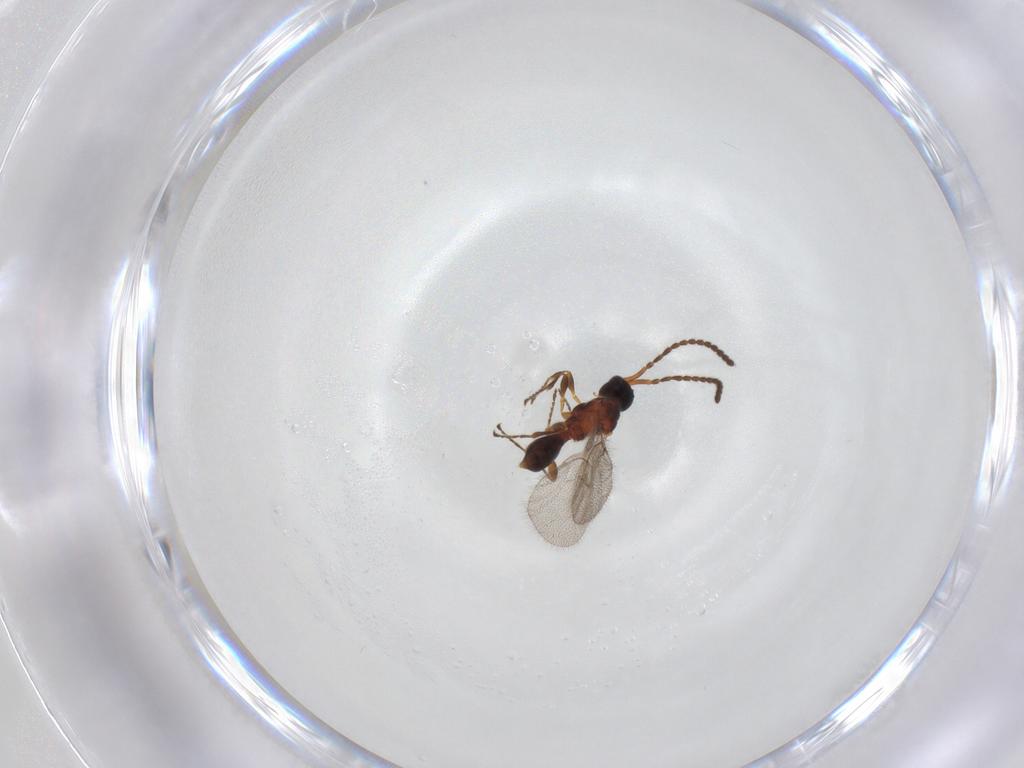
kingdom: Animalia
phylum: Arthropoda
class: Insecta
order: Hymenoptera
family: Diapriidae
